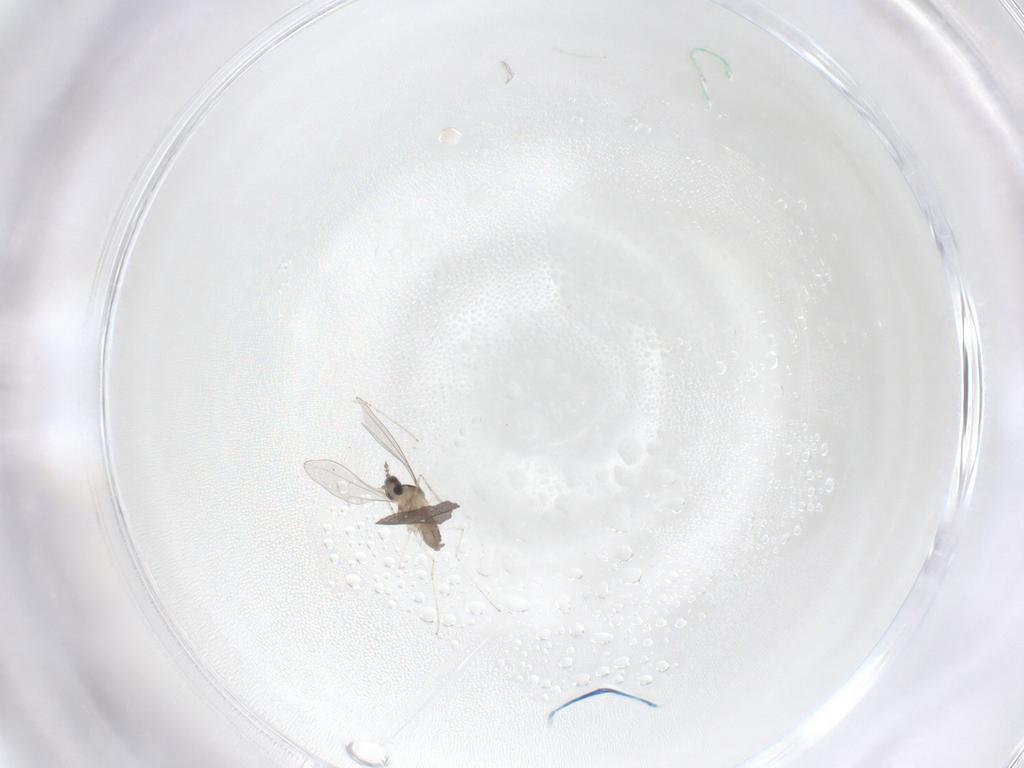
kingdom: Animalia
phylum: Arthropoda
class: Insecta
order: Diptera
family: Cecidomyiidae
